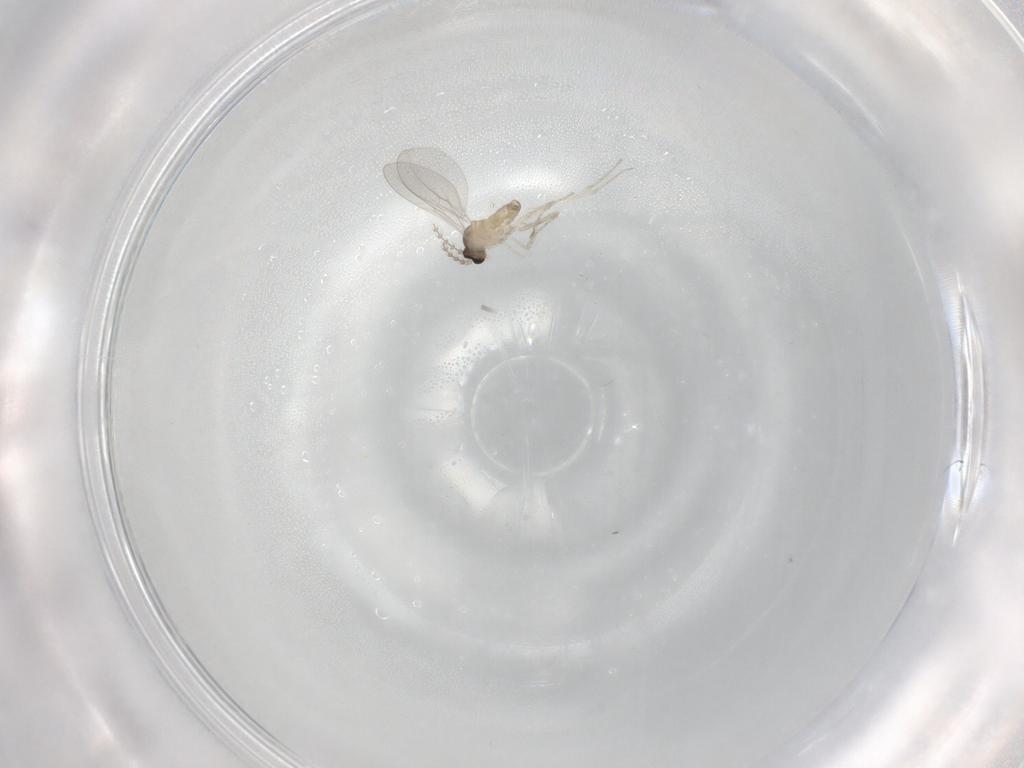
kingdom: Animalia
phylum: Arthropoda
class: Insecta
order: Diptera
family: Cecidomyiidae
